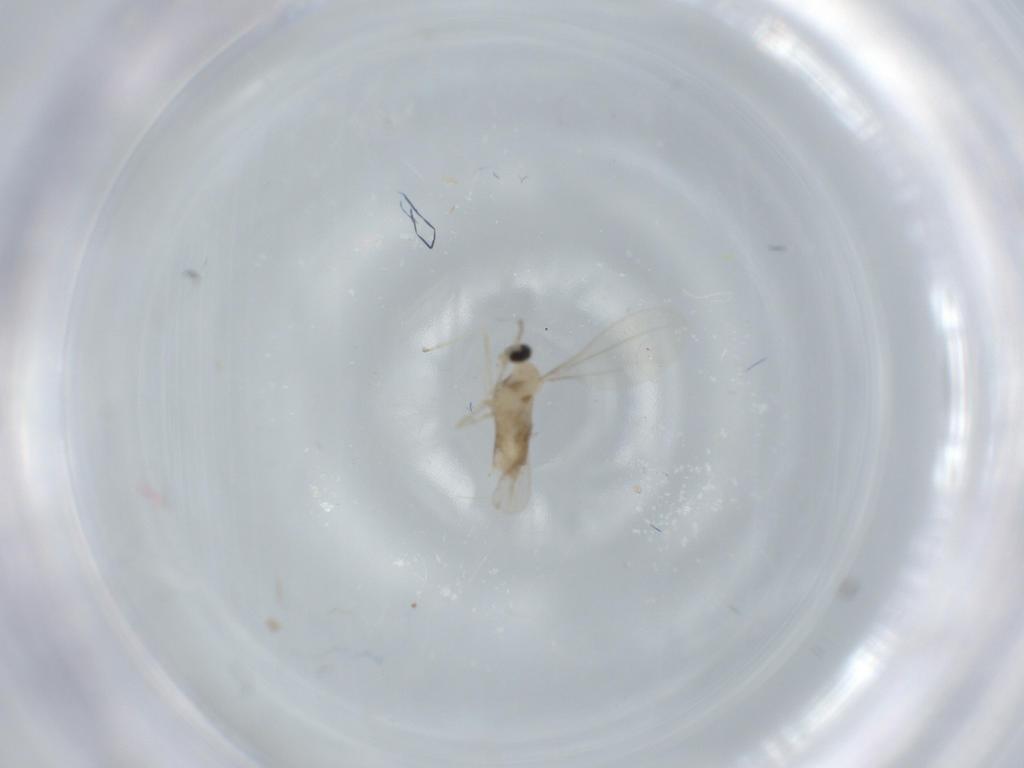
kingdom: Animalia
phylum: Arthropoda
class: Insecta
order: Diptera
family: Cecidomyiidae
